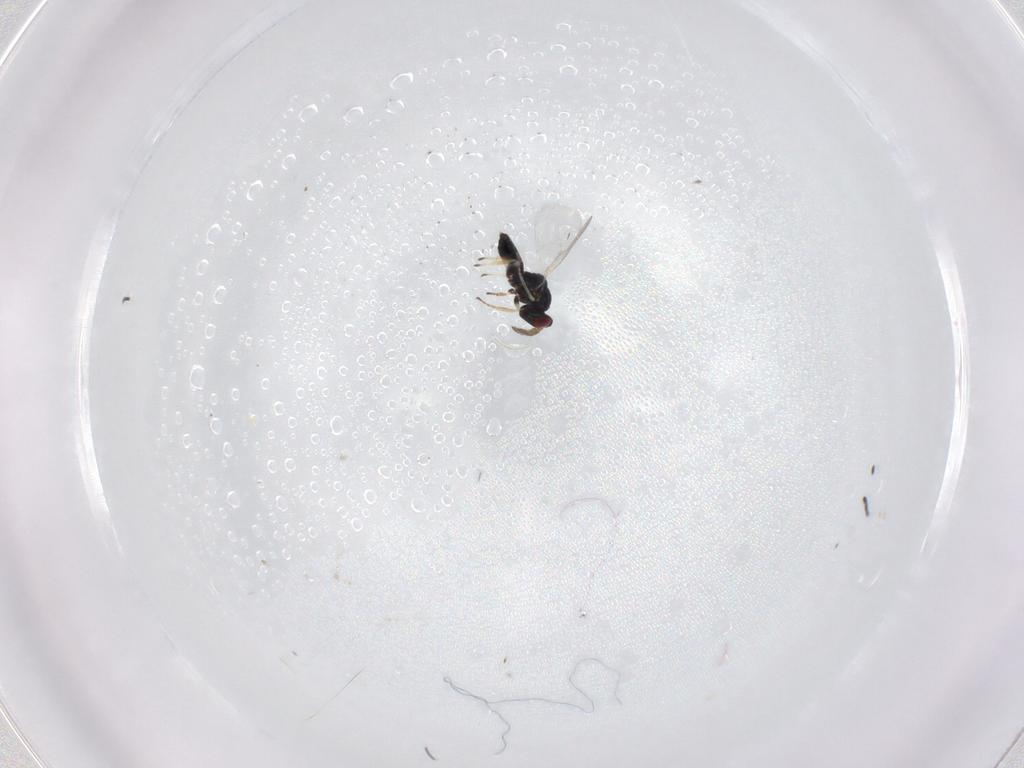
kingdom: Animalia
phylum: Arthropoda
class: Insecta
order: Hymenoptera
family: Eulophidae
